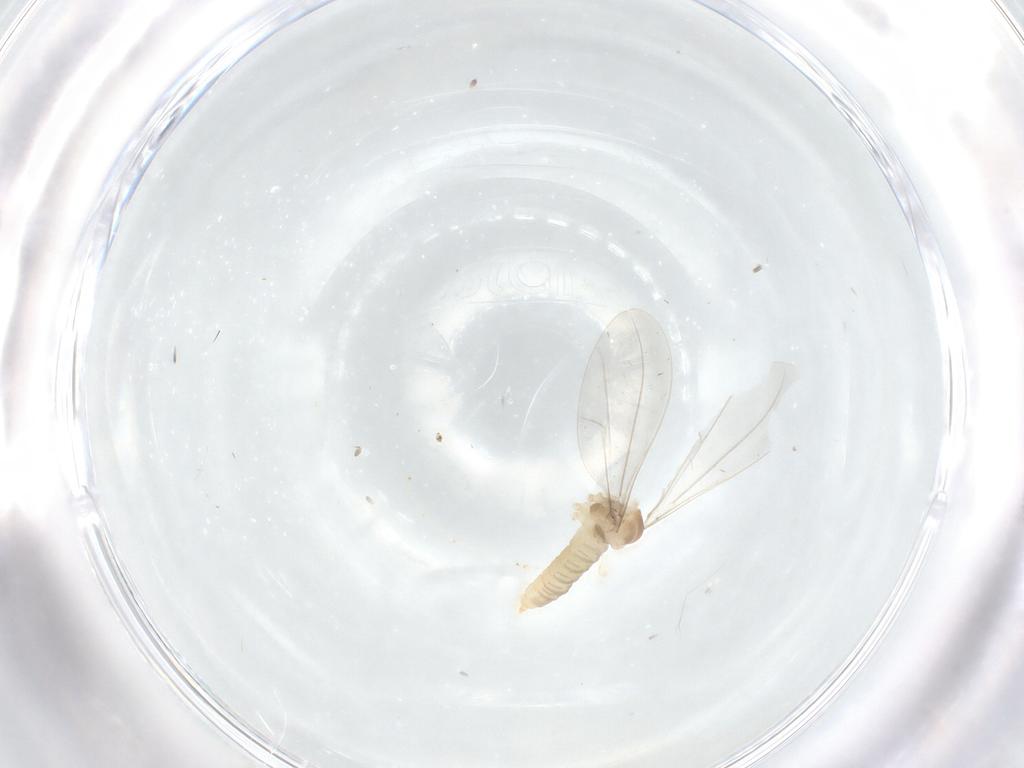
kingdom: Animalia
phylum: Arthropoda
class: Insecta
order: Diptera
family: Cecidomyiidae
